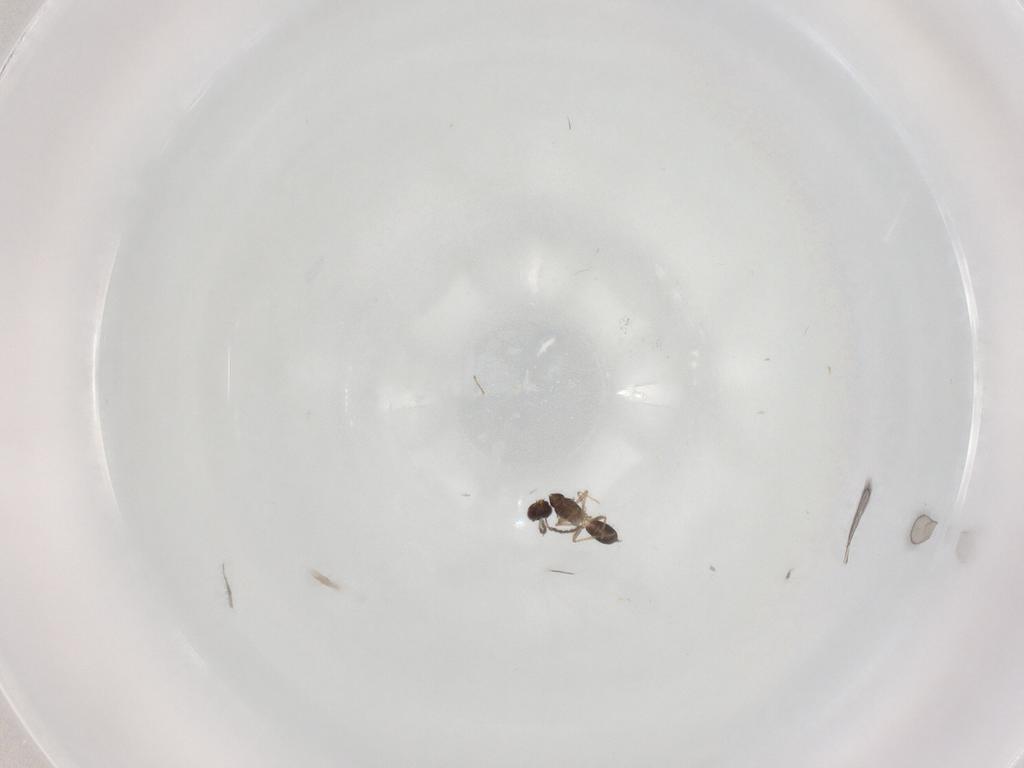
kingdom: Animalia
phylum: Arthropoda
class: Insecta
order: Hymenoptera
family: Eulophidae
